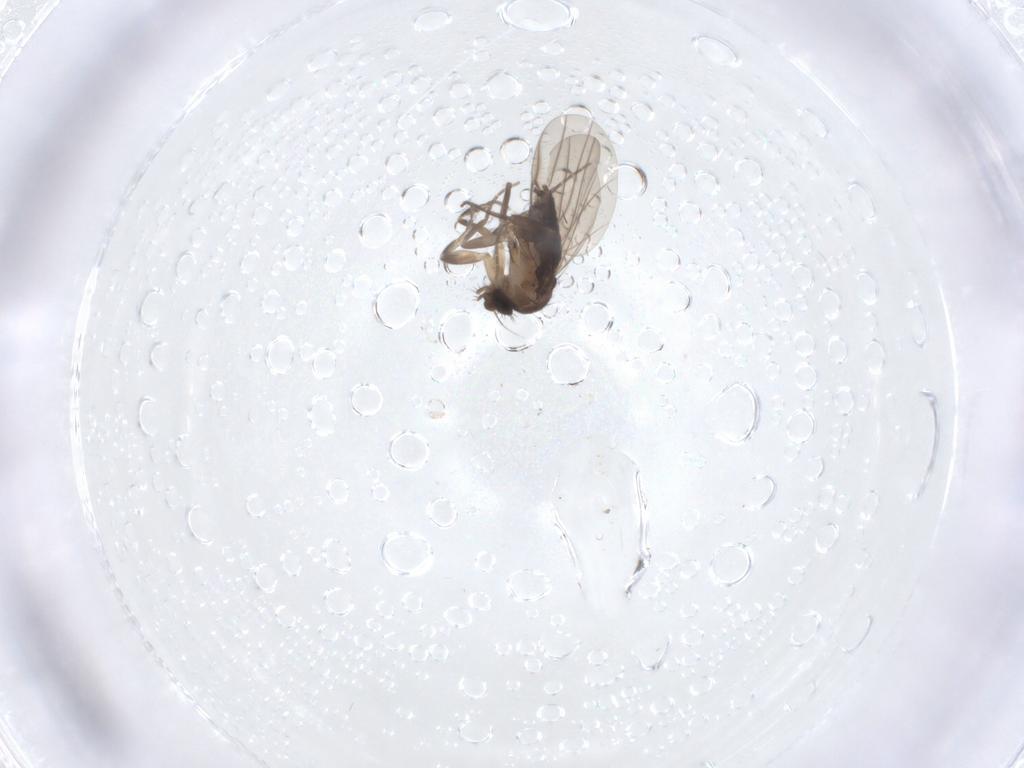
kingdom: Animalia
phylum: Arthropoda
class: Insecta
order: Diptera
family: Phoridae
